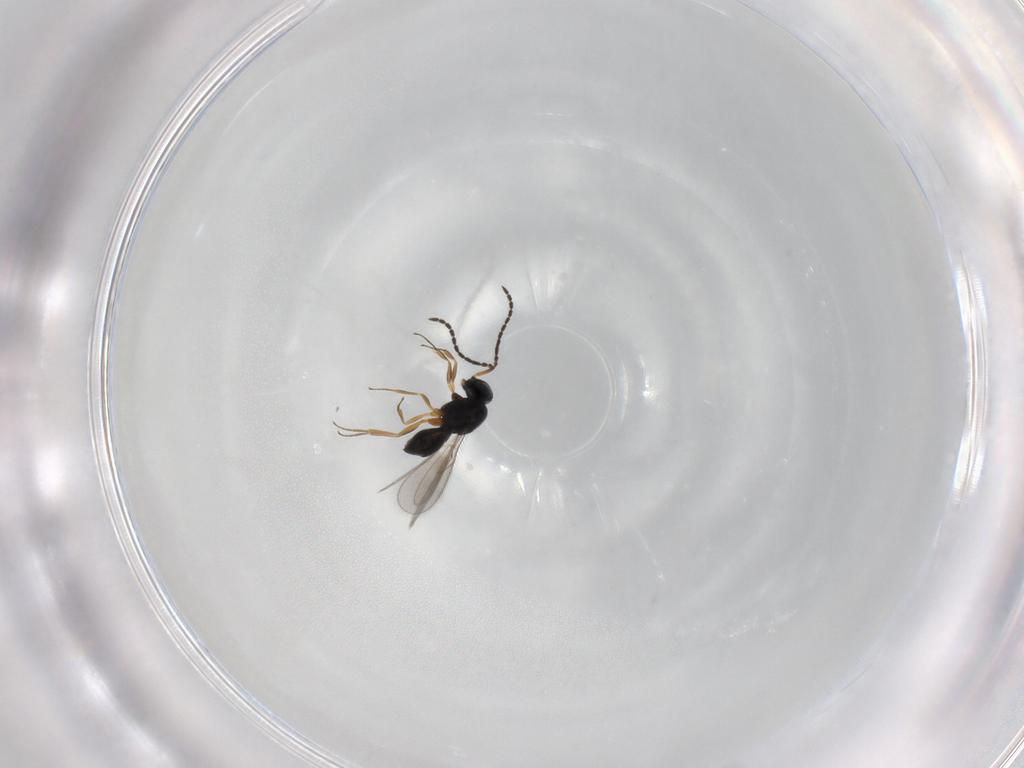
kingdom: Animalia
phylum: Arthropoda
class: Insecta
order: Hymenoptera
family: Scelionidae
